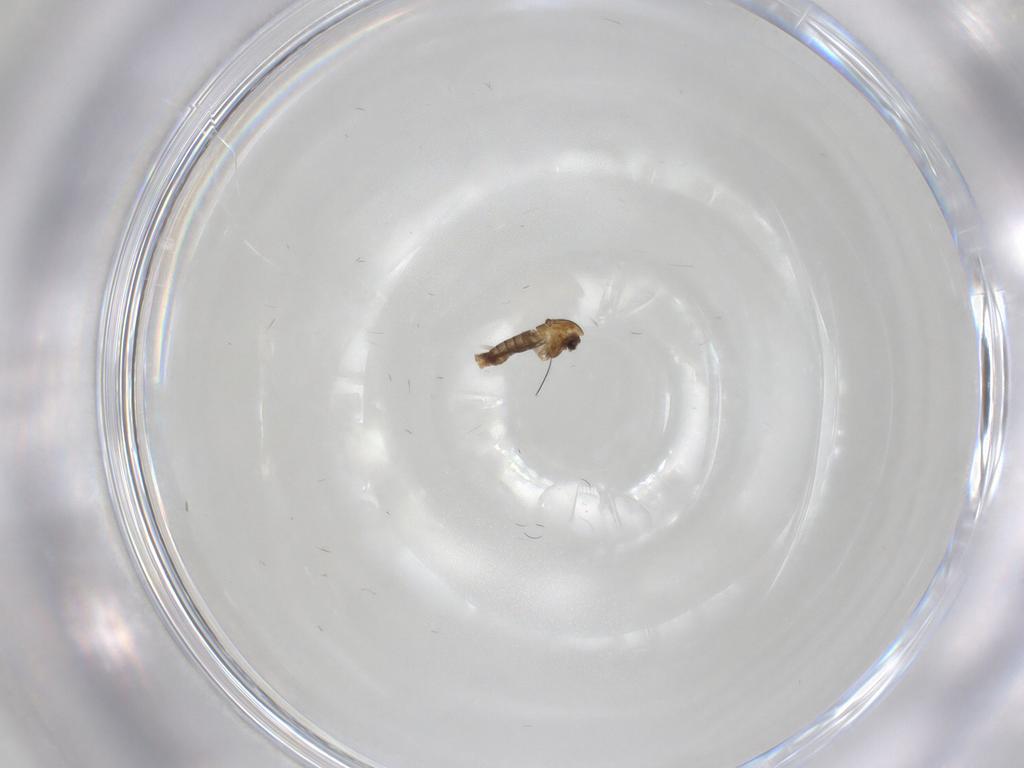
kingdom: Animalia
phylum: Arthropoda
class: Insecta
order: Diptera
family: Chironomidae
